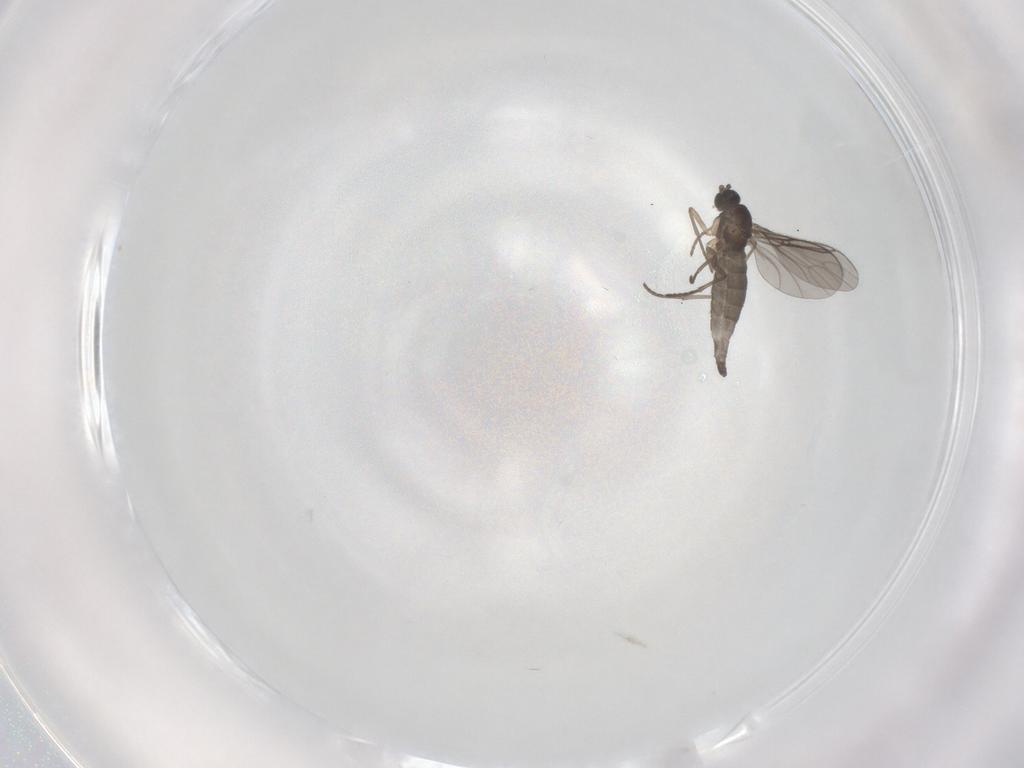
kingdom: Animalia
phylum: Arthropoda
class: Insecta
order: Diptera
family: Sciaridae
